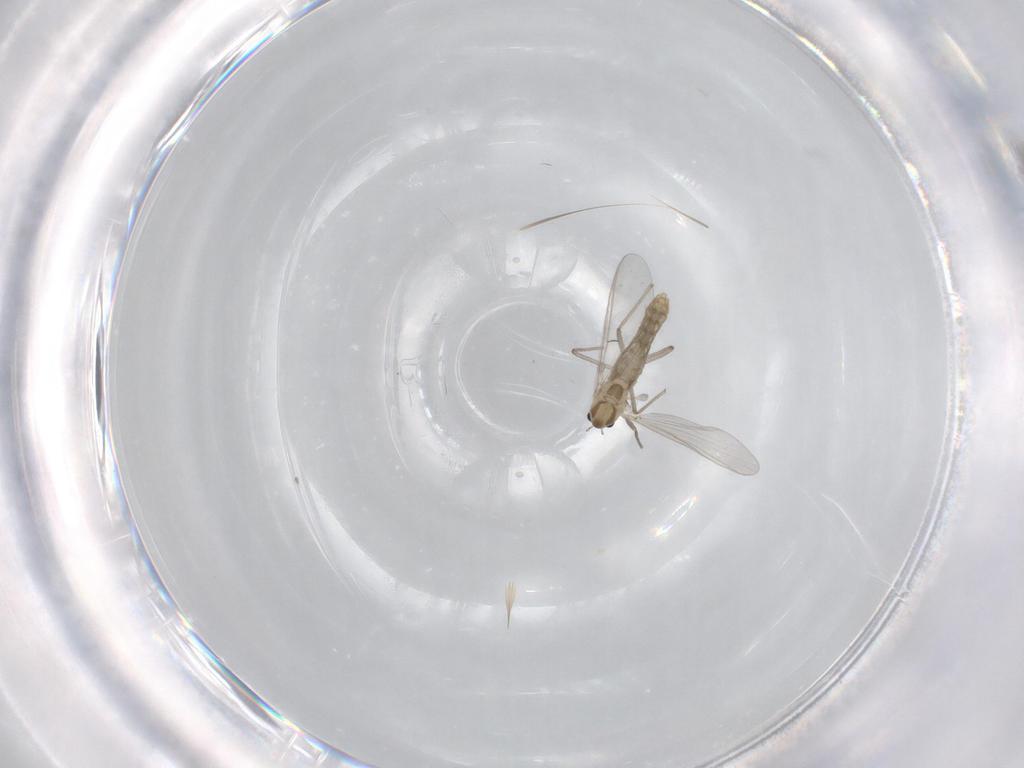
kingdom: Animalia
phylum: Arthropoda
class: Insecta
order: Diptera
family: Chironomidae
